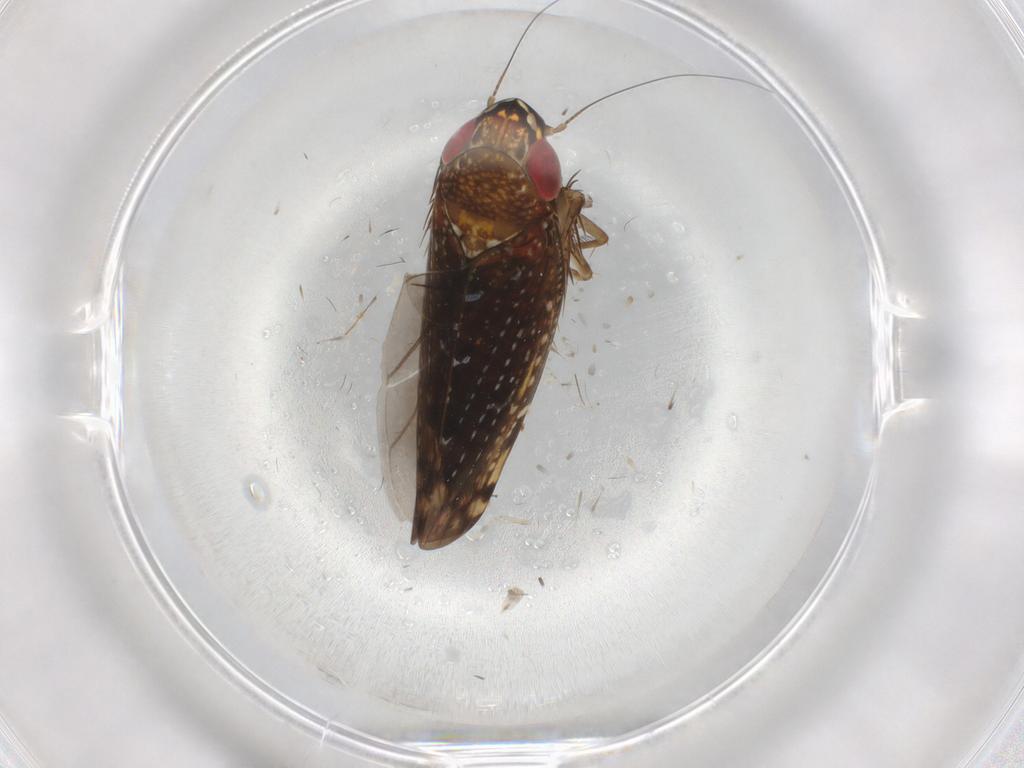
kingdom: Animalia
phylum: Arthropoda
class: Insecta
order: Hemiptera
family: Cicadellidae
